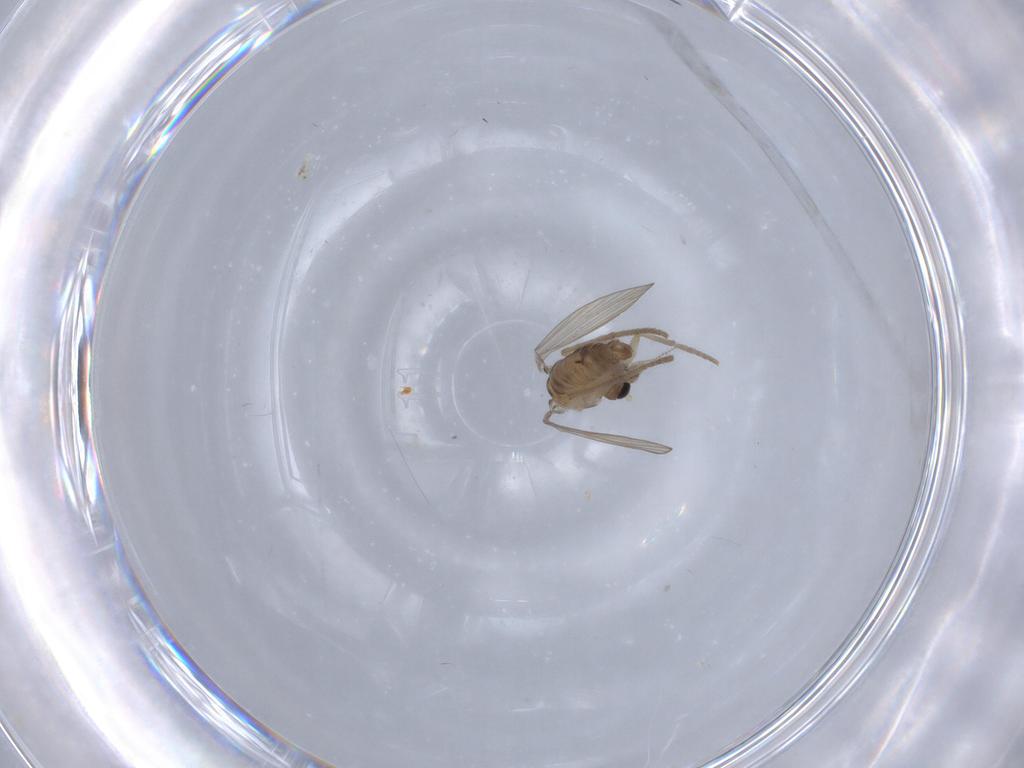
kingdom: Animalia
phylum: Arthropoda
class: Insecta
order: Diptera
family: Psychodidae
